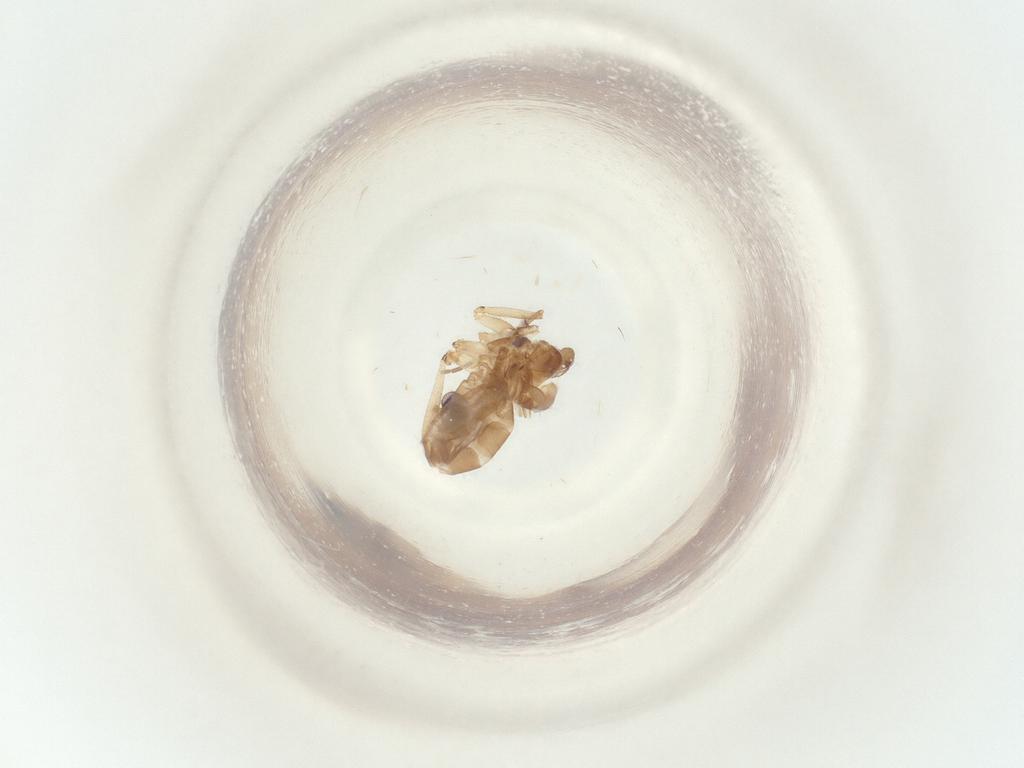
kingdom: Animalia
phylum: Arthropoda
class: Insecta
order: Diptera
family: Sciaridae
